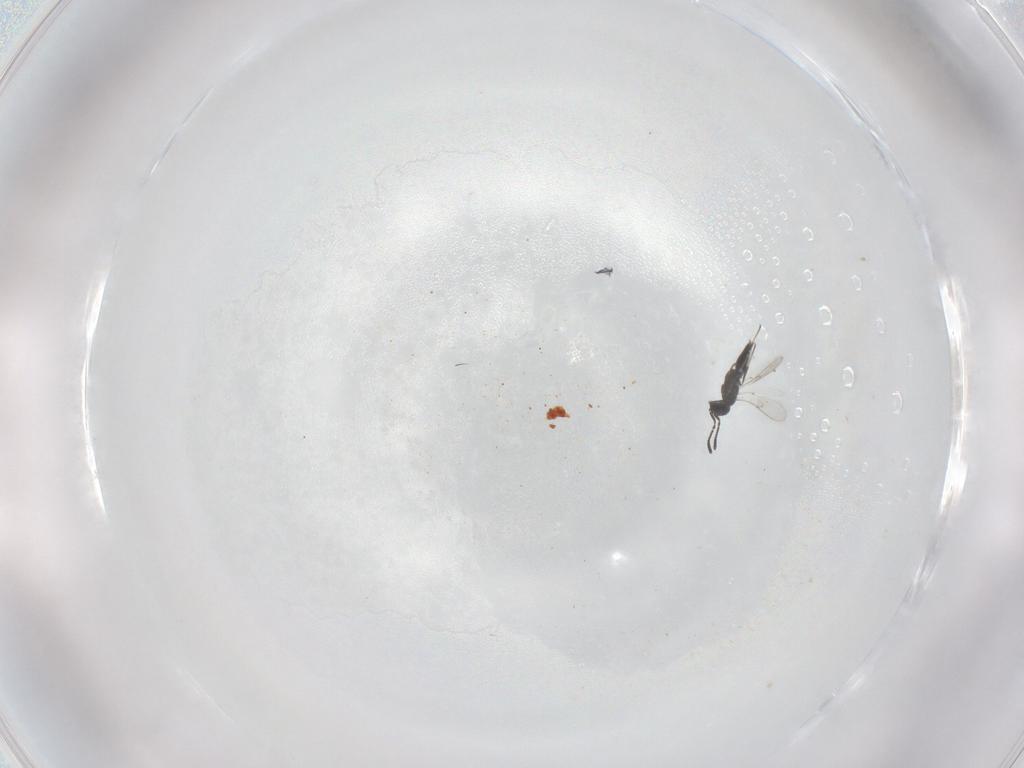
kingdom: Animalia
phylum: Arthropoda
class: Insecta
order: Hymenoptera
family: Scelionidae
